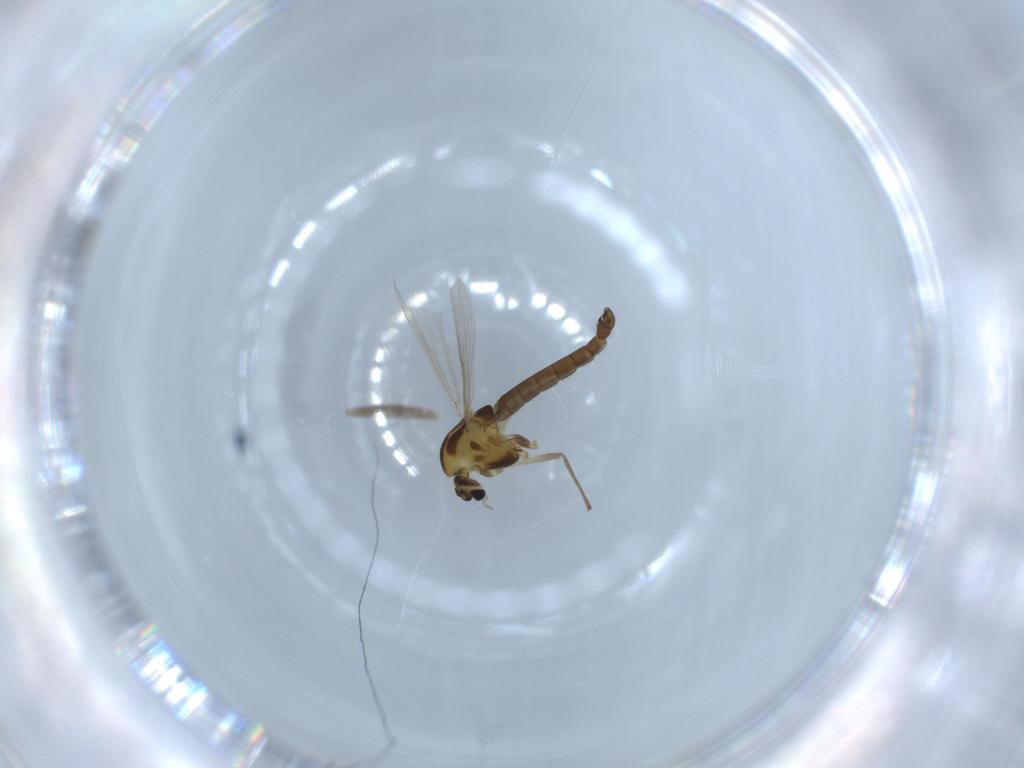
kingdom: Animalia
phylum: Arthropoda
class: Insecta
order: Diptera
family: Chironomidae
